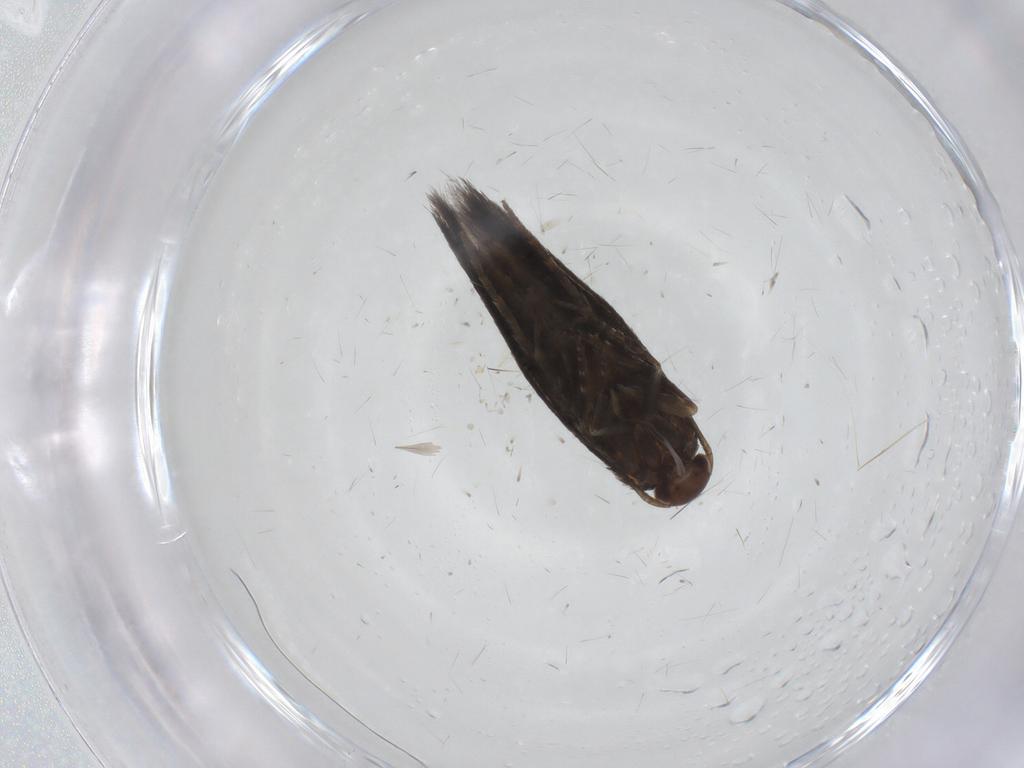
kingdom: Animalia
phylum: Arthropoda
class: Insecta
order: Lepidoptera
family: Elachistidae
